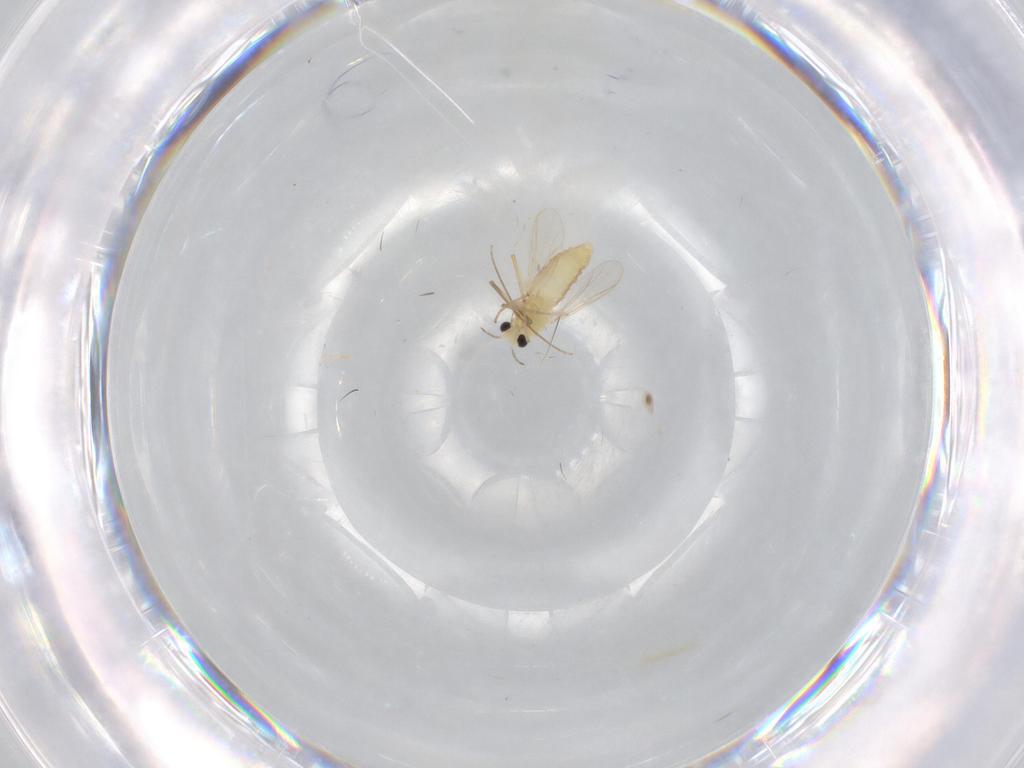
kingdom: Animalia
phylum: Arthropoda
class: Insecta
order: Diptera
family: Chironomidae
